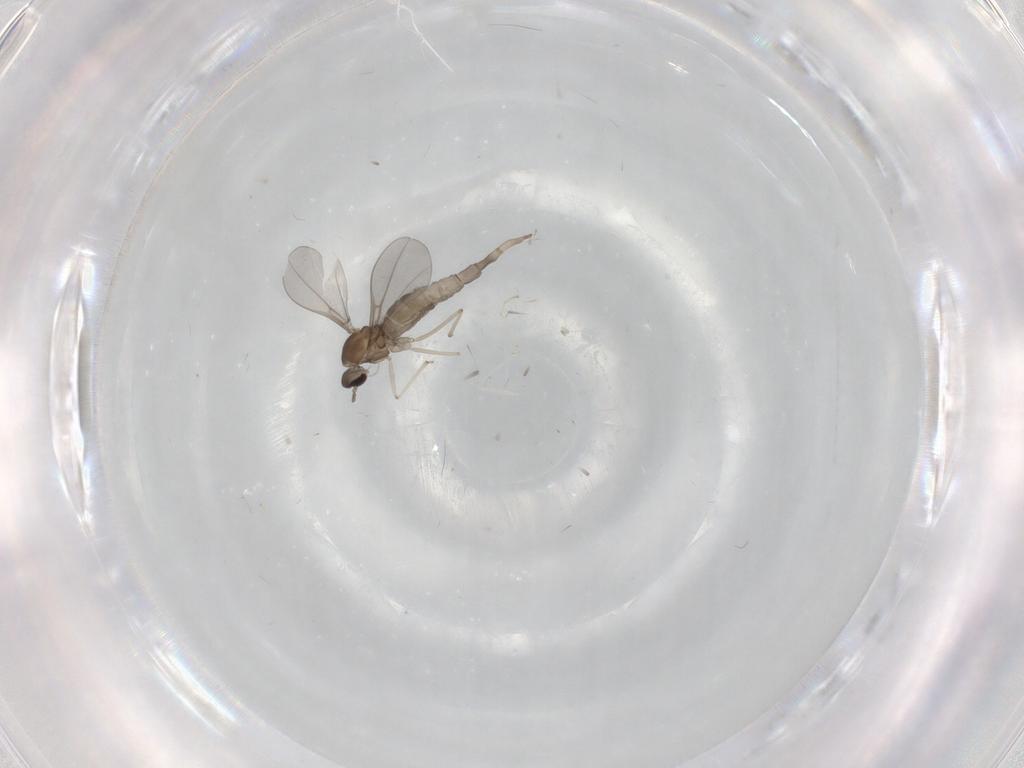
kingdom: Animalia
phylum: Arthropoda
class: Insecta
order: Diptera
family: Cecidomyiidae
